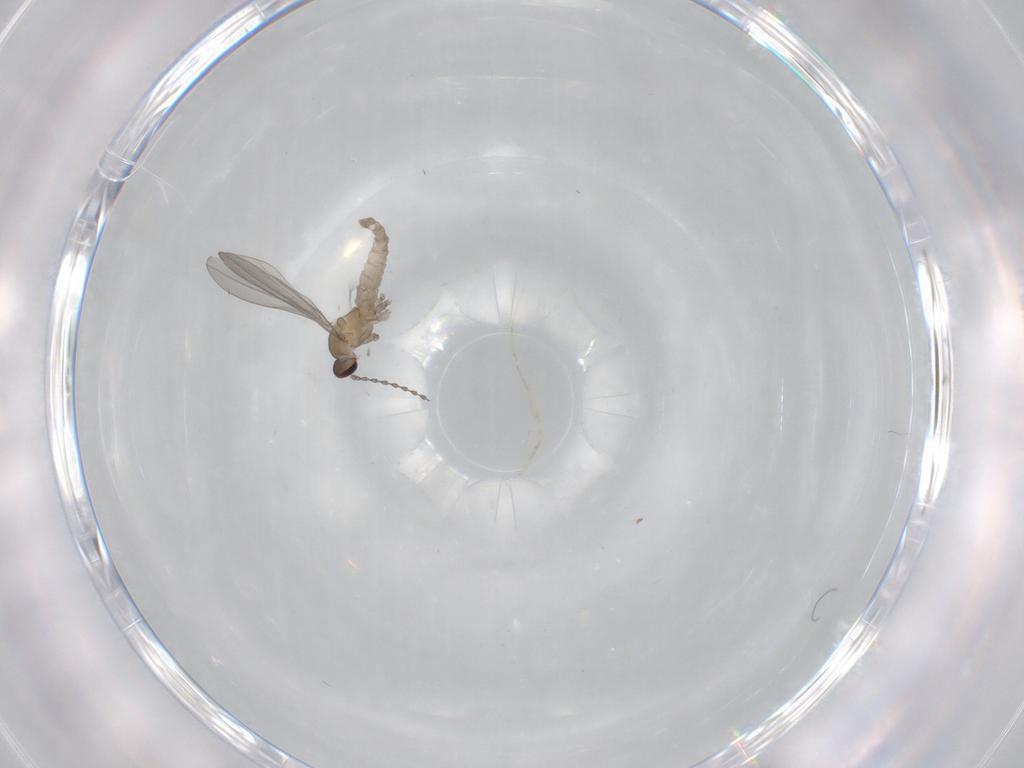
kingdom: Animalia
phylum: Arthropoda
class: Insecta
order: Diptera
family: Cecidomyiidae
